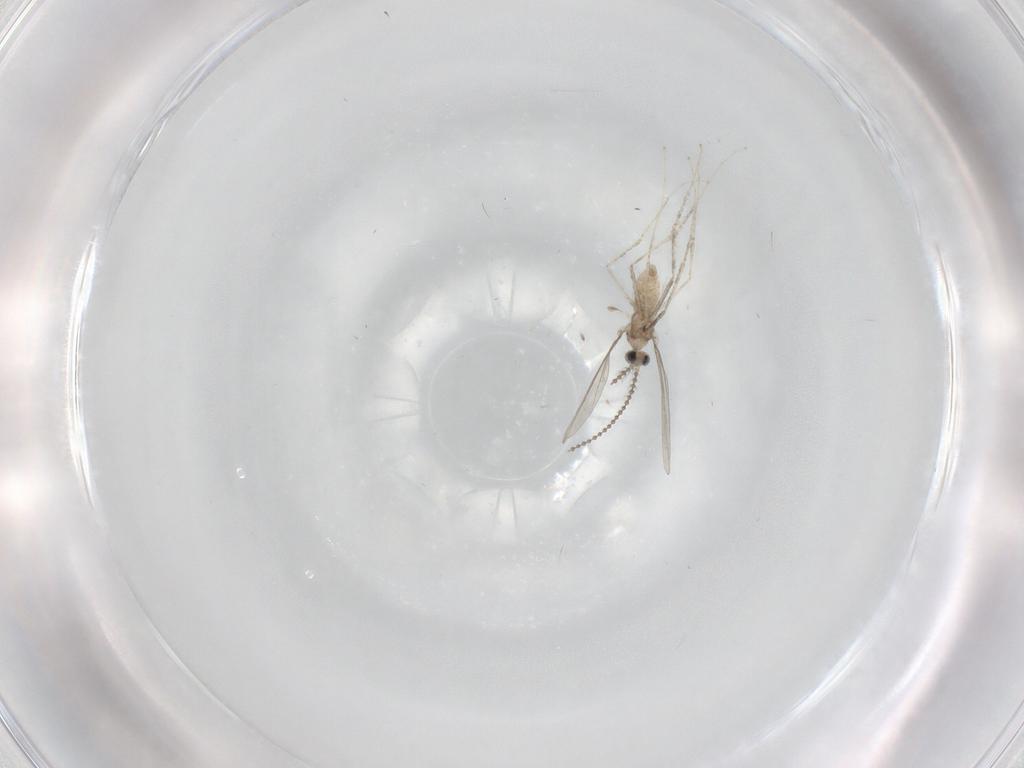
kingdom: Animalia
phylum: Arthropoda
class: Insecta
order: Diptera
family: Cecidomyiidae
